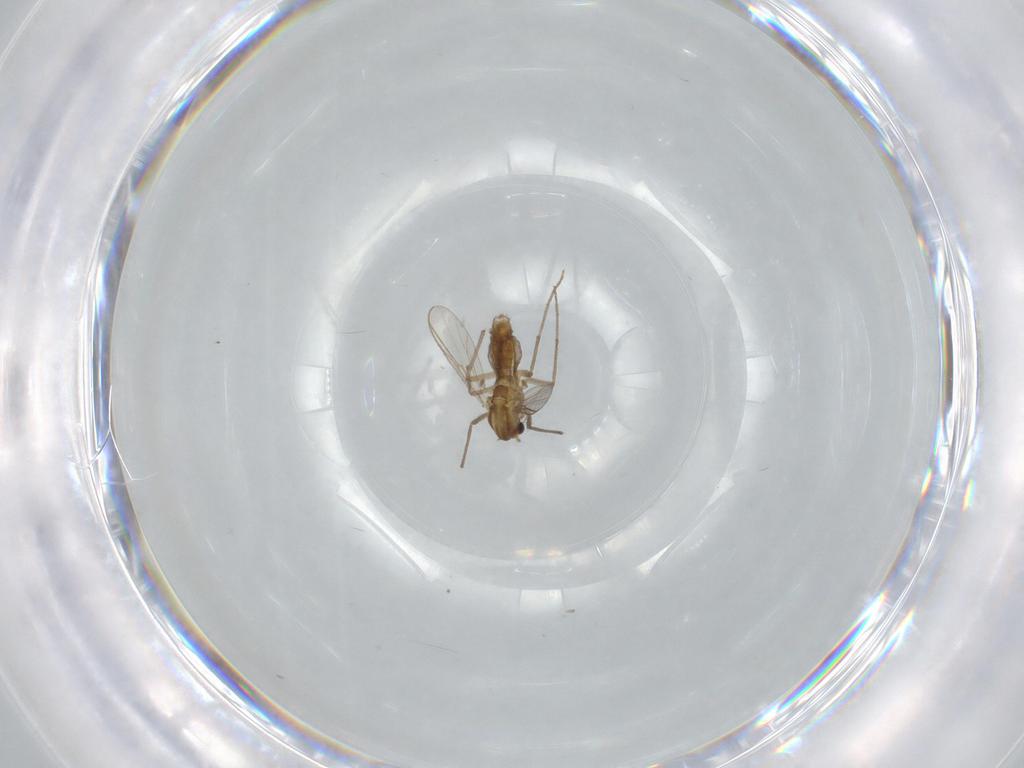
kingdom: Animalia
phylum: Arthropoda
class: Insecta
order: Diptera
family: Chironomidae
